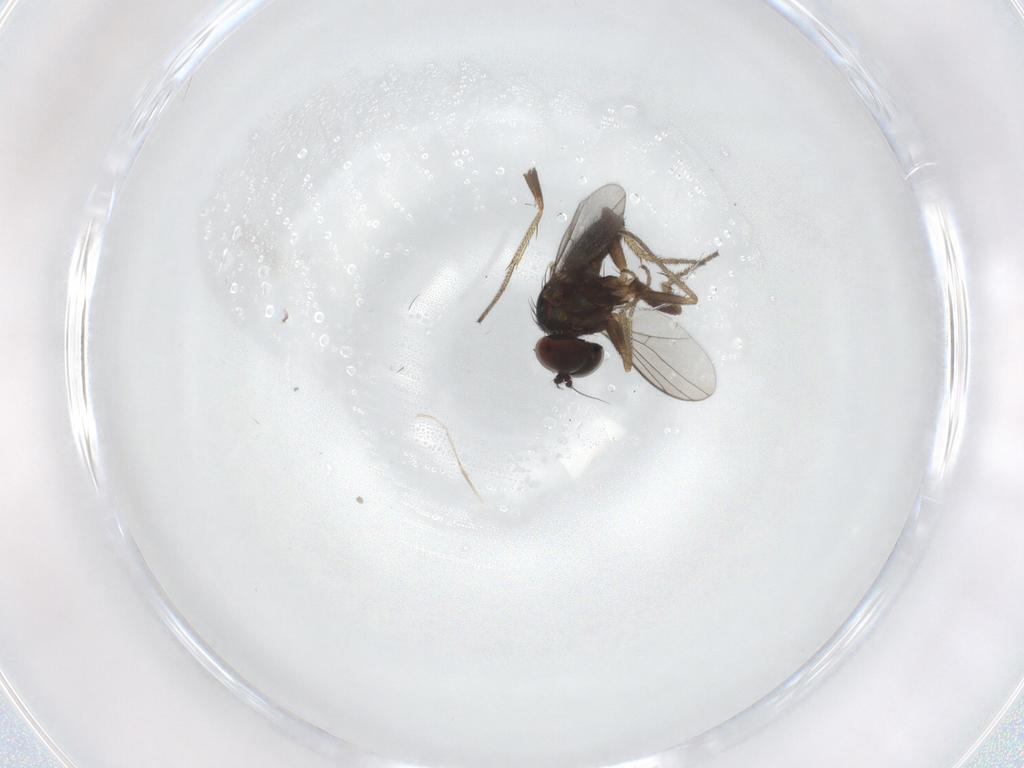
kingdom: Animalia
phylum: Arthropoda
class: Insecta
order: Diptera
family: Cecidomyiidae
